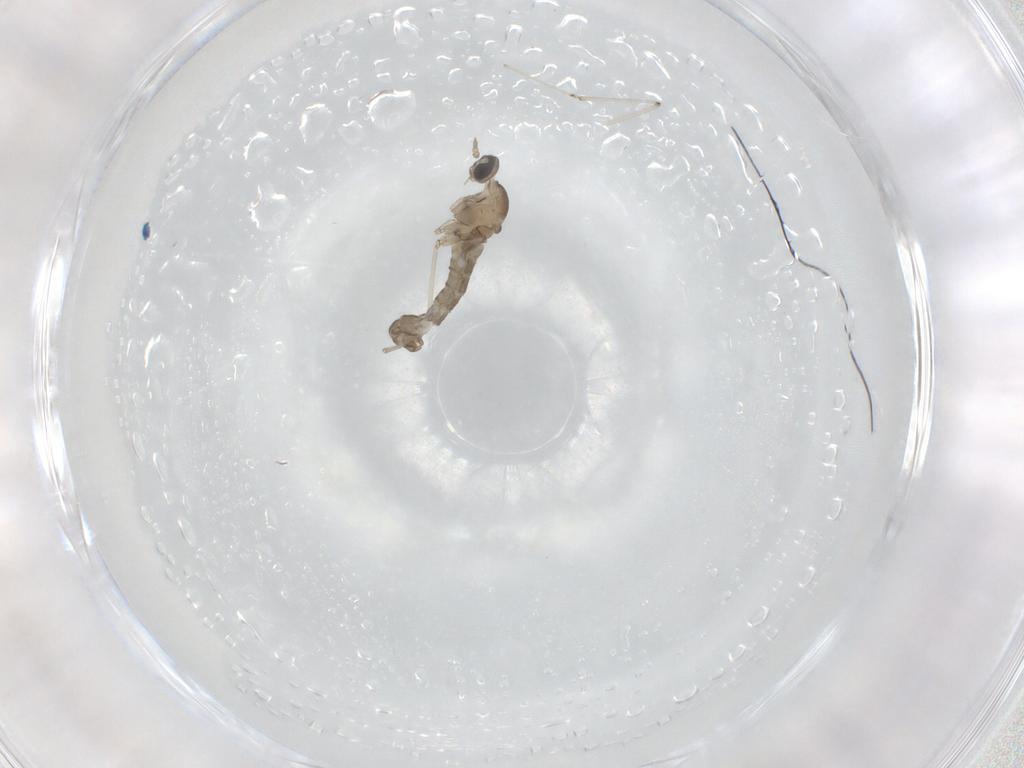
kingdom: Animalia
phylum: Arthropoda
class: Insecta
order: Diptera
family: Cecidomyiidae
